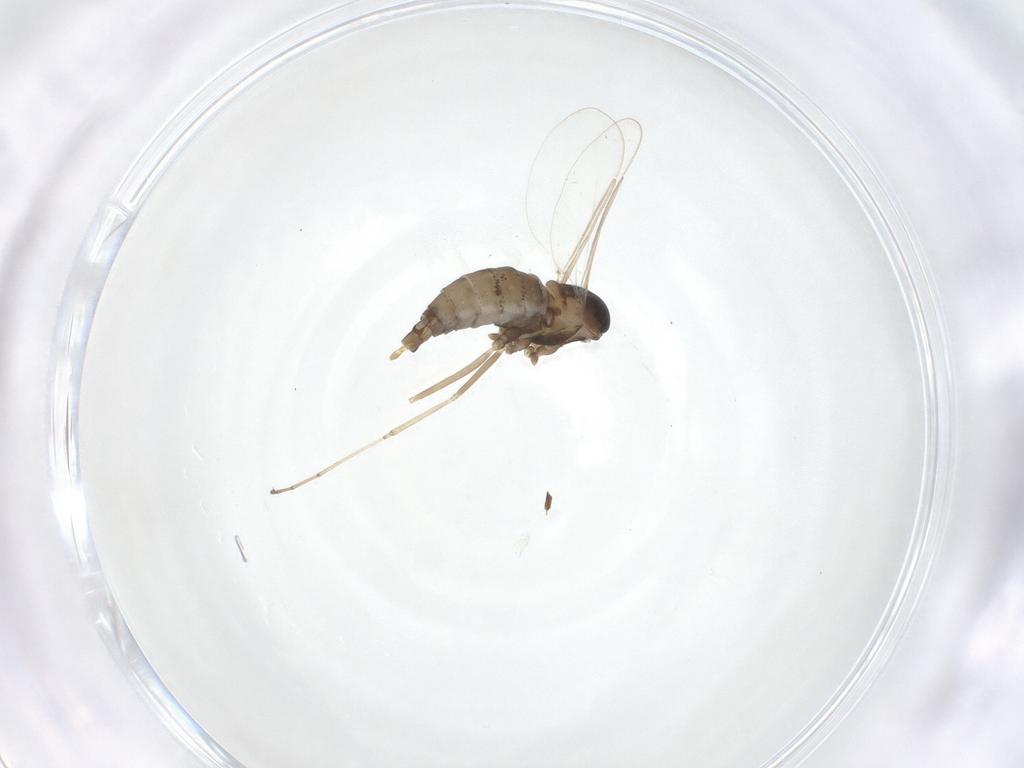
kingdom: Animalia
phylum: Arthropoda
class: Insecta
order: Diptera
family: Cecidomyiidae
